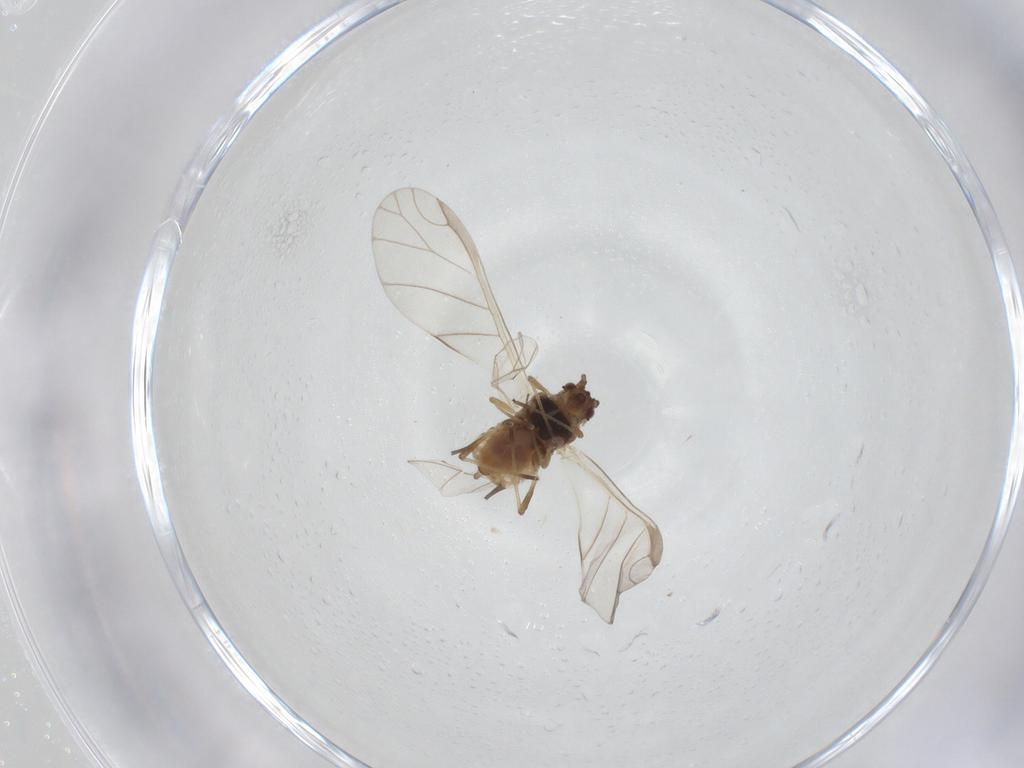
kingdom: Animalia
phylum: Arthropoda
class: Insecta
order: Hemiptera
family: Aphididae
